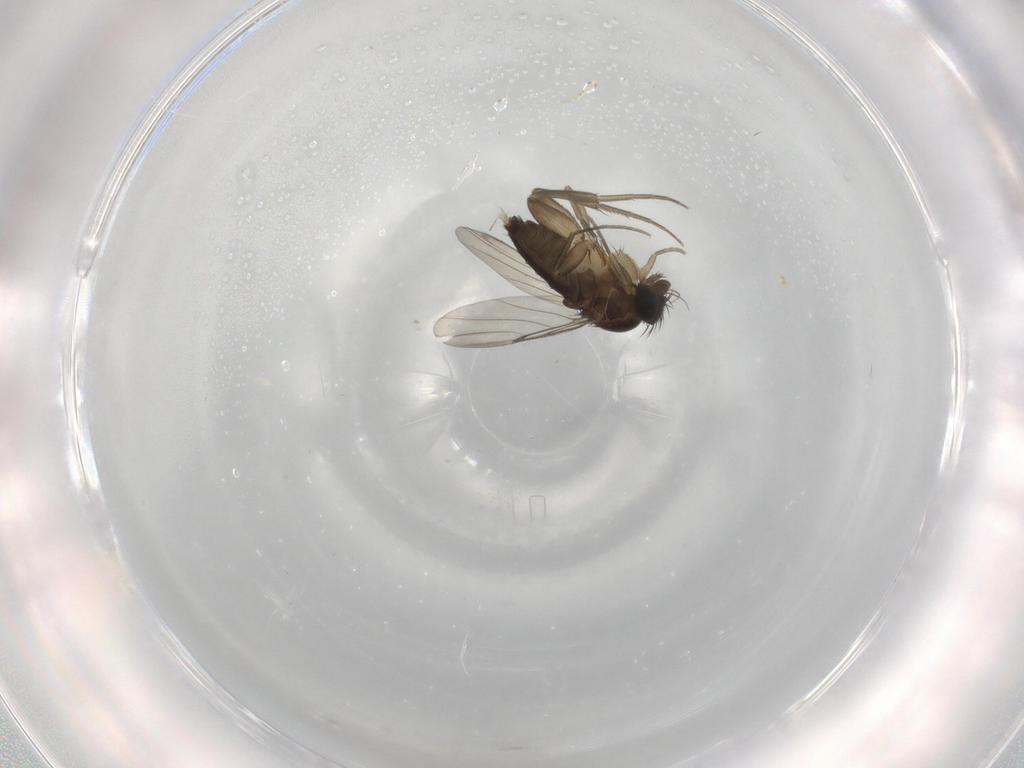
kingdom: Animalia
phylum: Arthropoda
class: Insecta
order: Diptera
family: Phoridae
